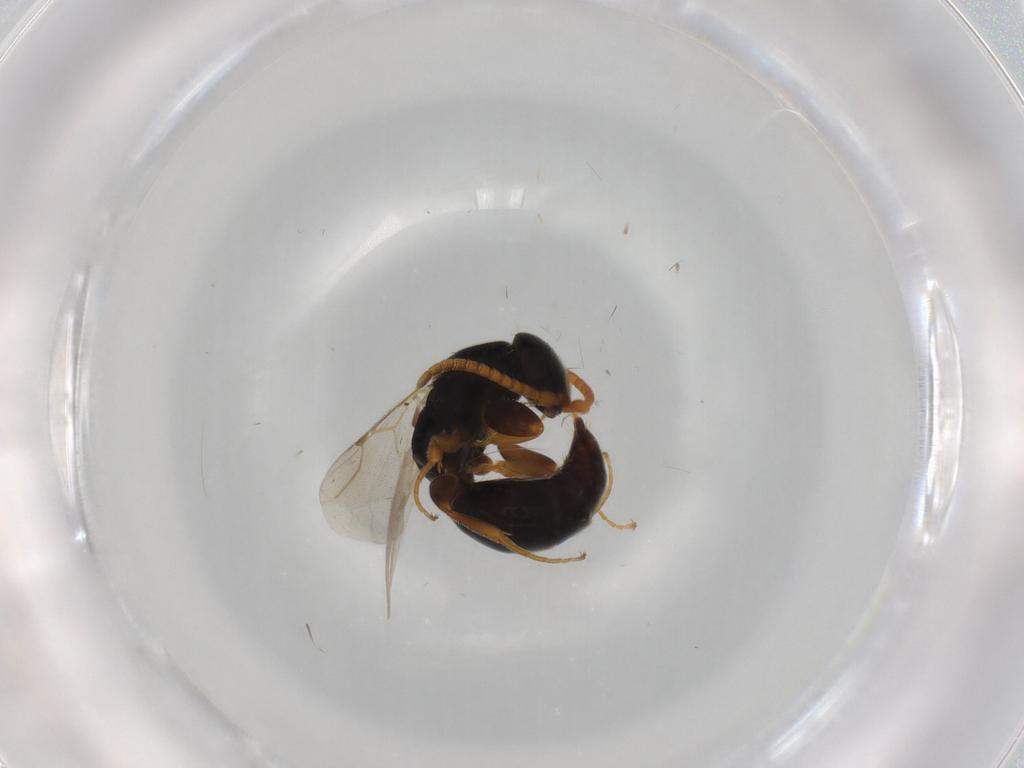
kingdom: Animalia
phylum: Arthropoda
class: Insecta
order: Hymenoptera
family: Bethylidae
